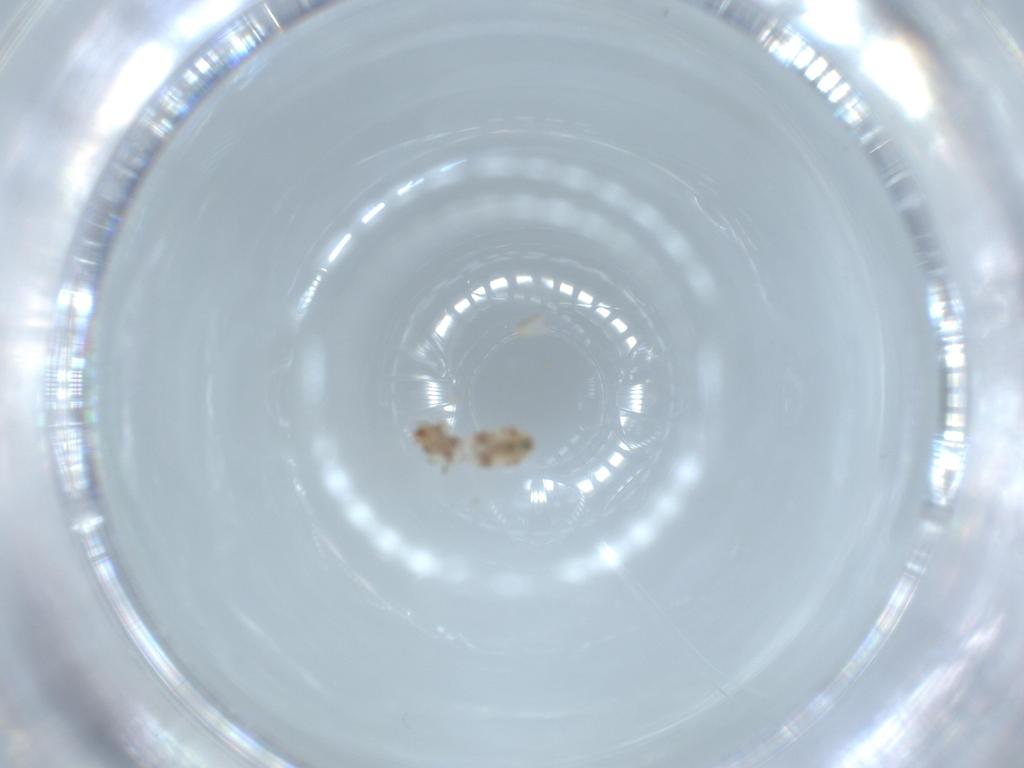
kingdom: Animalia
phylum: Arthropoda
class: Insecta
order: Psocodea
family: Liposcelididae
